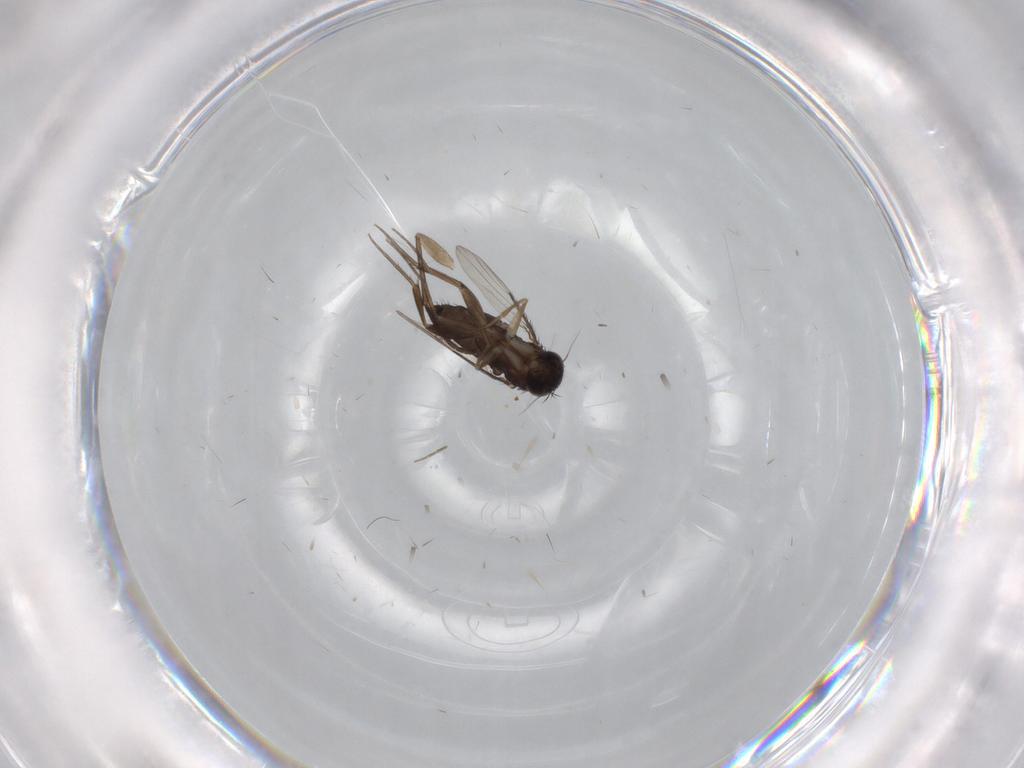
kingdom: Animalia
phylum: Arthropoda
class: Insecta
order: Diptera
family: Phoridae
